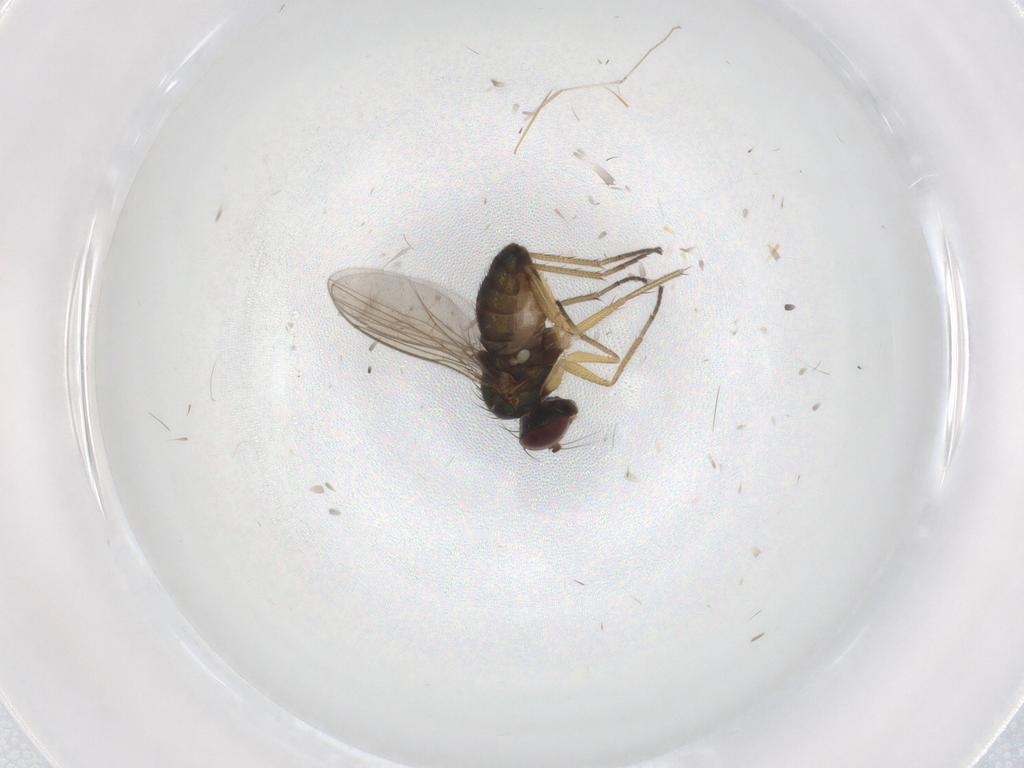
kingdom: Animalia
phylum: Arthropoda
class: Insecta
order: Diptera
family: Dolichopodidae
